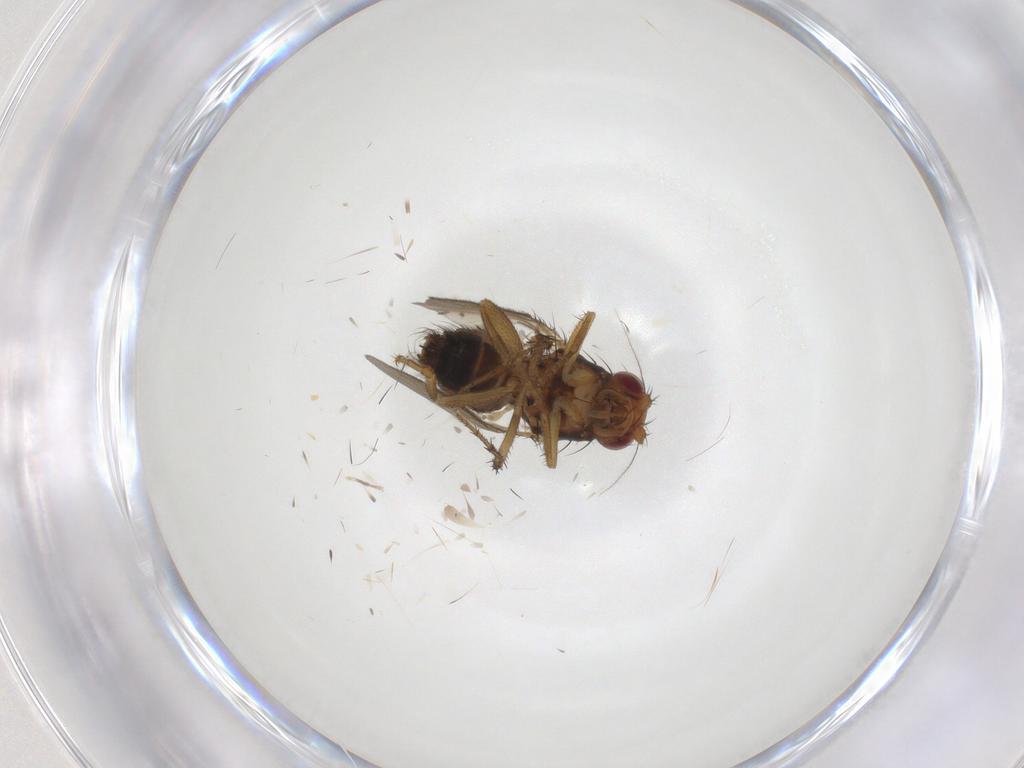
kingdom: Animalia
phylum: Arthropoda
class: Insecta
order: Diptera
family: Sphaeroceridae
